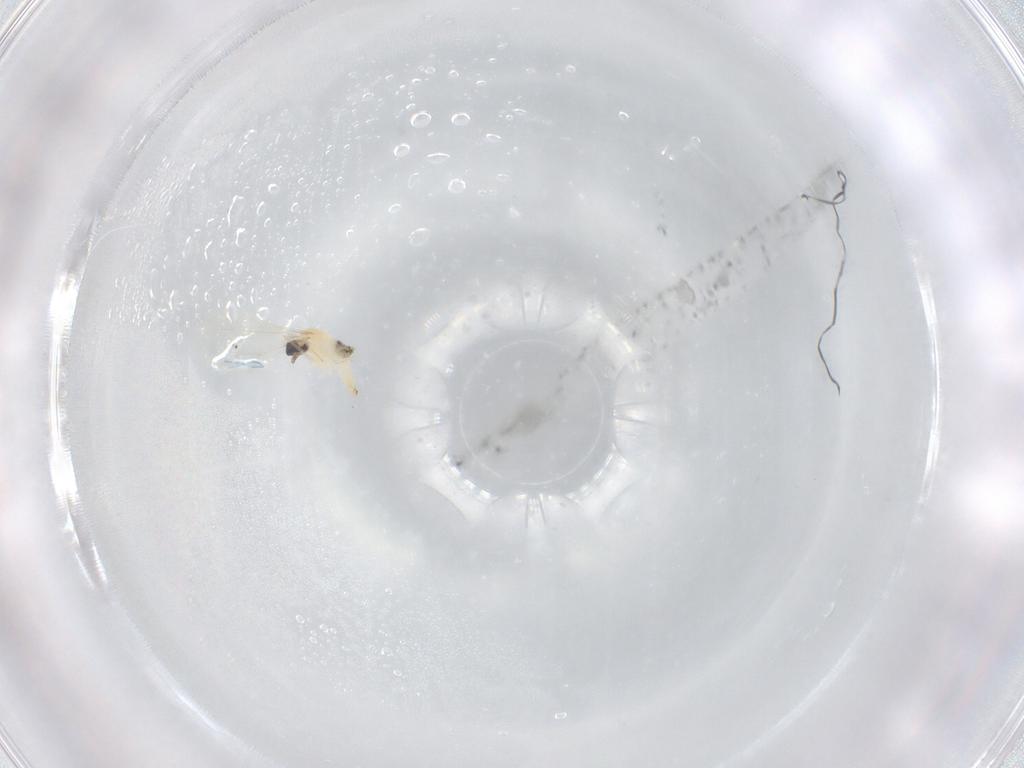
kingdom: Animalia
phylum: Arthropoda
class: Insecta
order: Diptera
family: Cecidomyiidae
